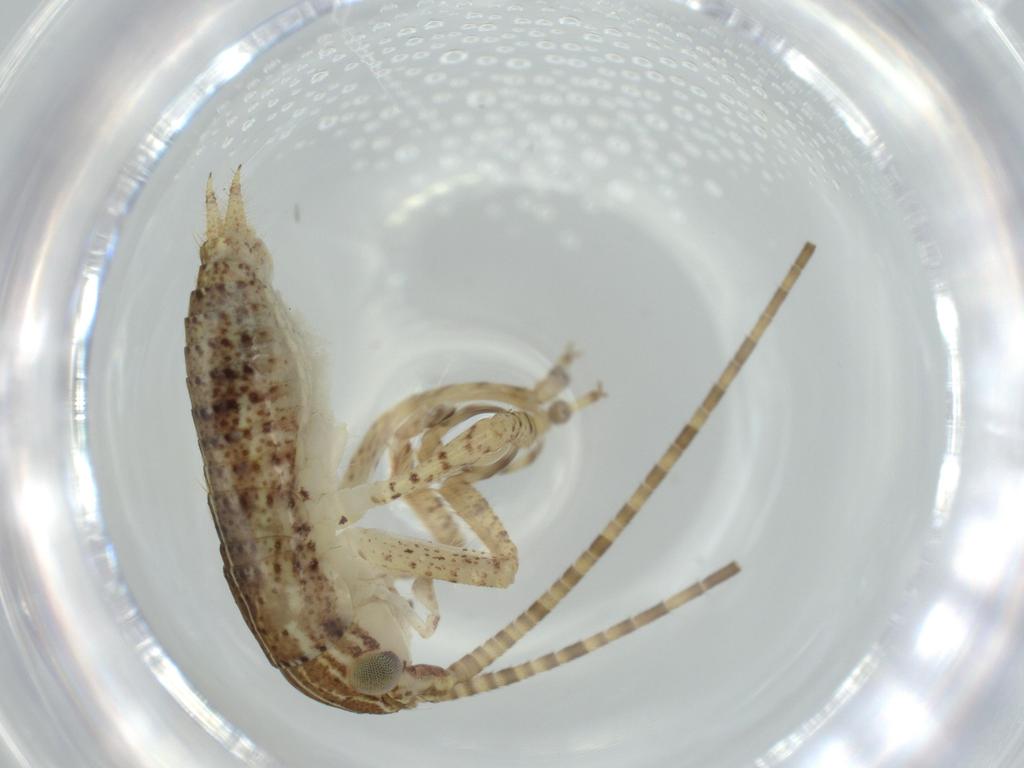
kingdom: Animalia
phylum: Arthropoda
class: Insecta
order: Orthoptera
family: Gryllidae
